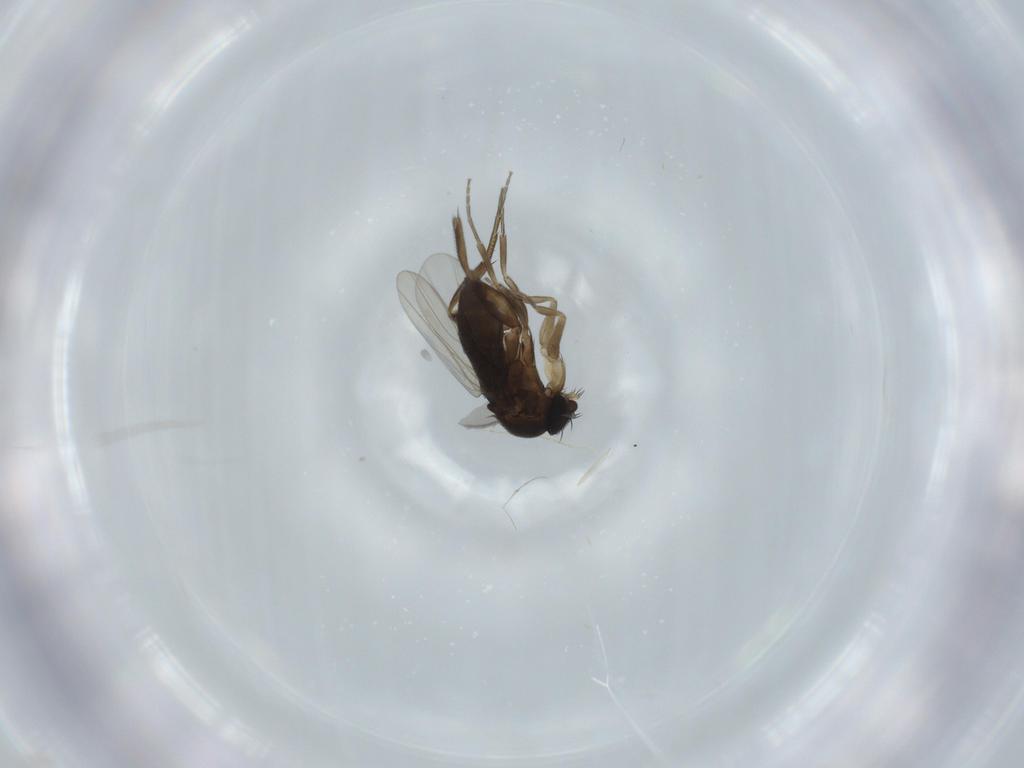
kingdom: Animalia
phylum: Arthropoda
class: Insecta
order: Diptera
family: Phoridae
